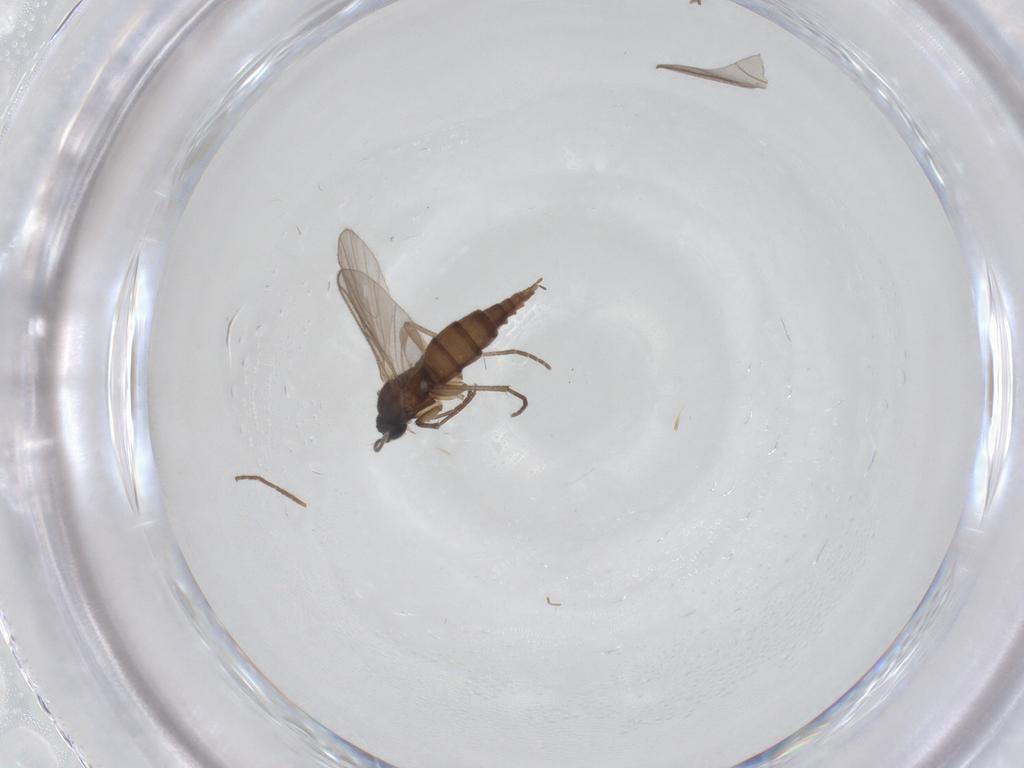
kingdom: Animalia
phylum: Arthropoda
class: Insecta
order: Diptera
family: Sciaridae
